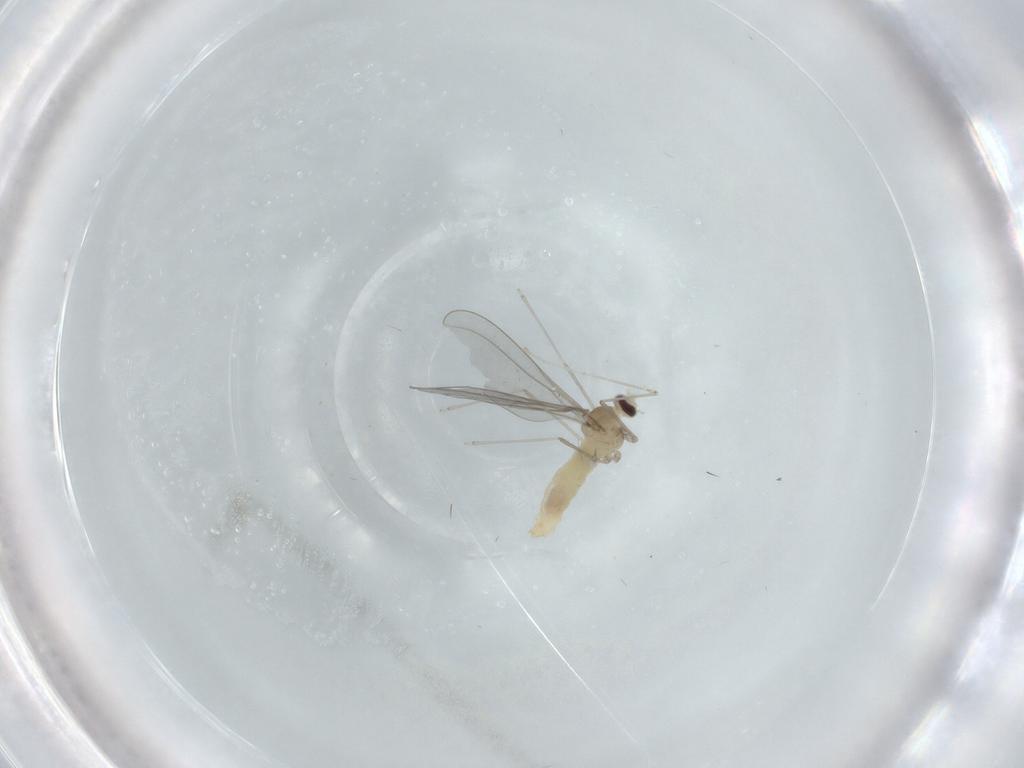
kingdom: Animalia
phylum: Arthropoda
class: Insecta
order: Diptera
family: Cecidomyiidae
